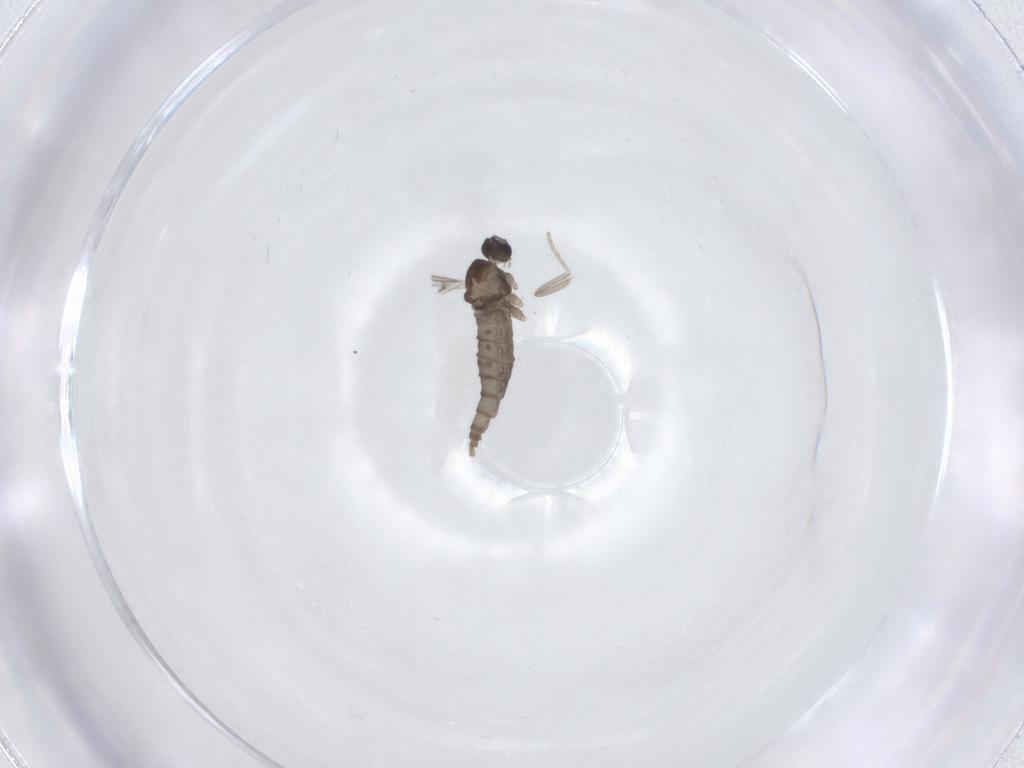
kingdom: Animalia
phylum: Arthropoda
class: Insecta
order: Diptera
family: Cecidomyiidae
